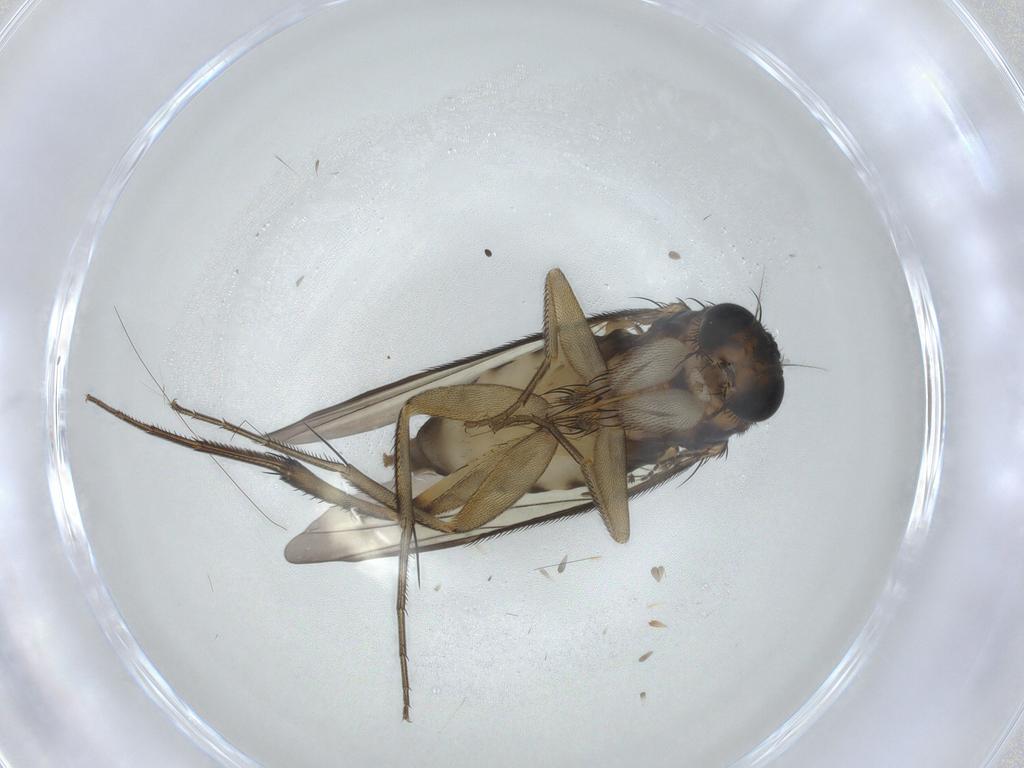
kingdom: Animalia
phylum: Arthropoda
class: Insecta
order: Diptera
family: Phoridae
